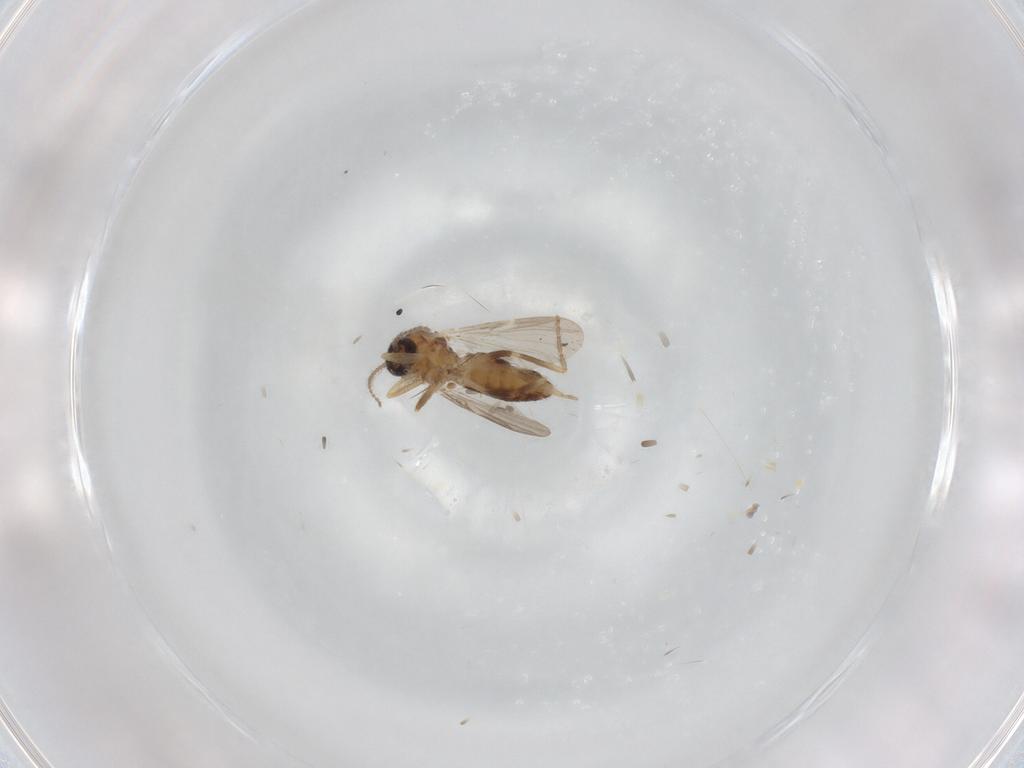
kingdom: Animalia
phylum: Arthropoda
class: Insecta
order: Diptera
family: Ceratopogonidae
